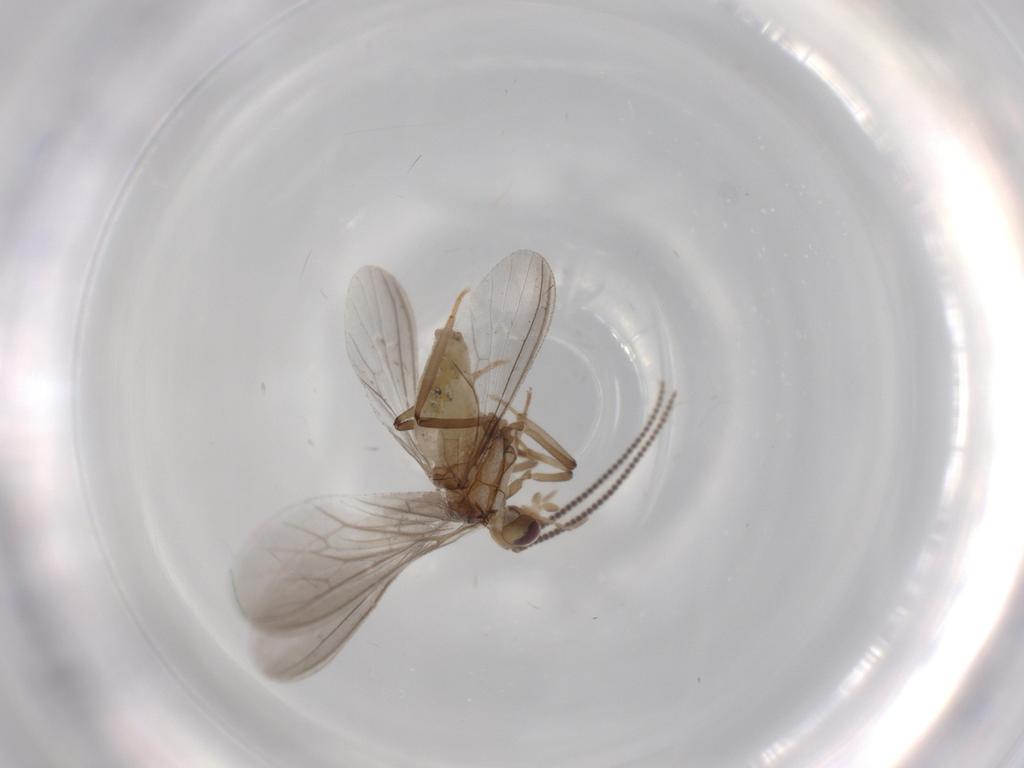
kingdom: Animalia
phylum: Arthropoda
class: Insecta
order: Neuroptera
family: Coniopterygidae
